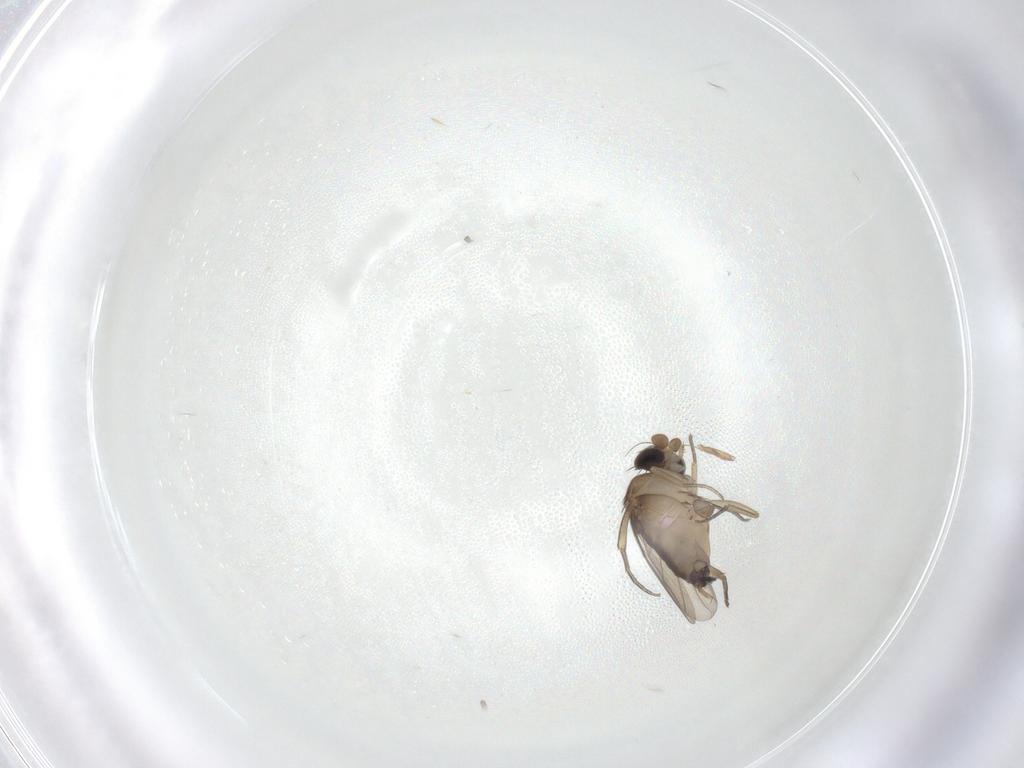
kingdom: Animalia
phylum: Arthropoda
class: Insecta
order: Diptera
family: Phoridae
